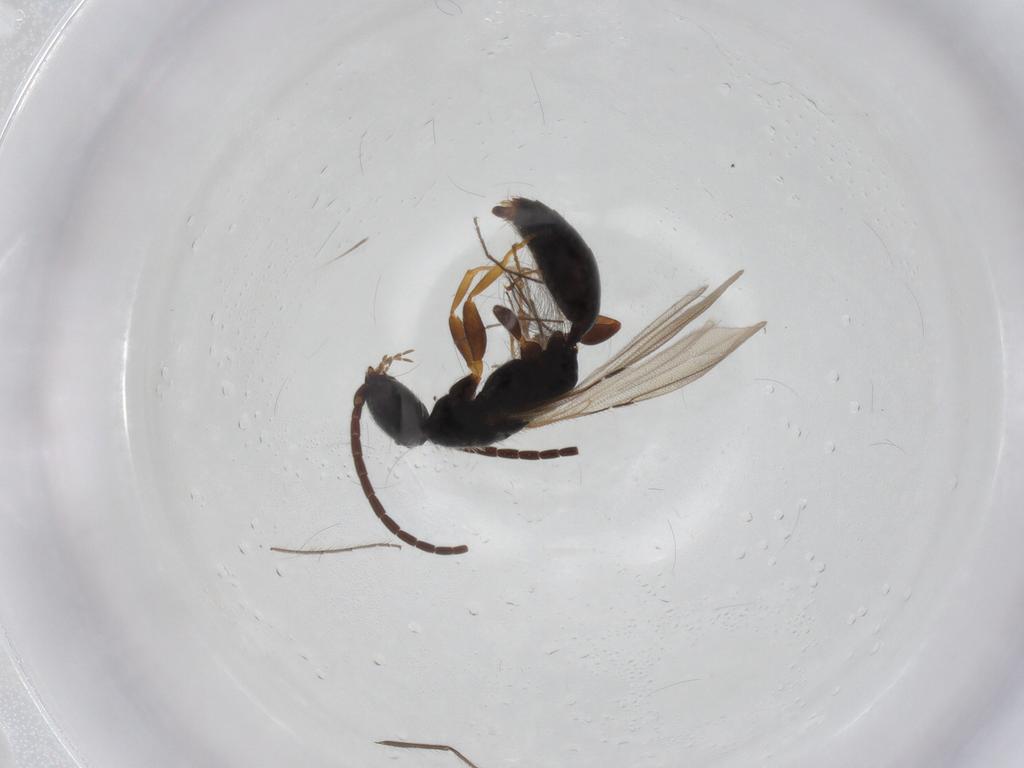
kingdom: Animalia
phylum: Arthropoda
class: Insecta
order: Hymenoptera
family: Bethylidae
